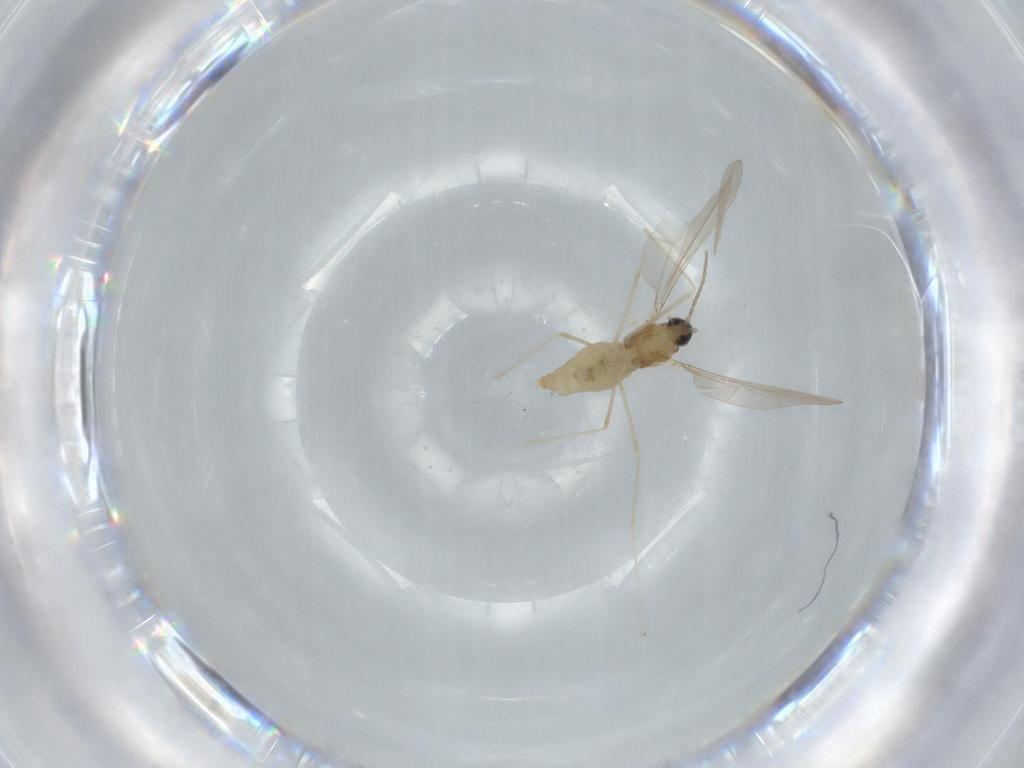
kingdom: Animalia
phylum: Arthropoda
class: Insecta
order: Diptera
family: Cecidomyiidae
